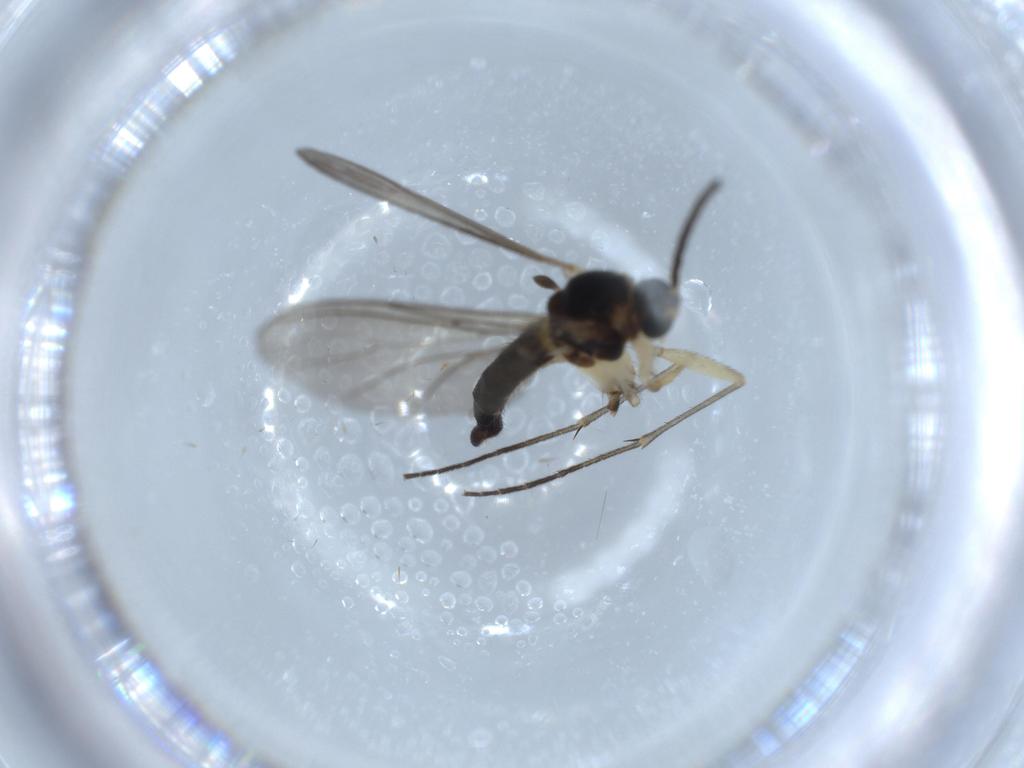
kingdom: Animalia
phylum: Arthropoda
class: Insecta
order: Diptera
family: Sciaridae
